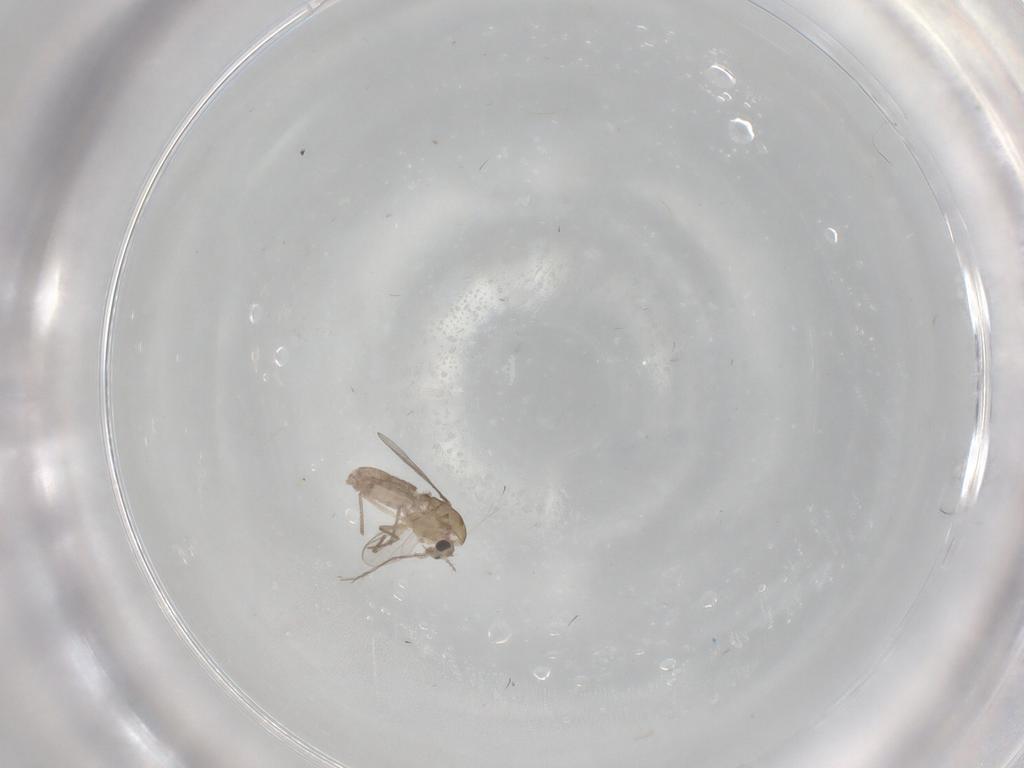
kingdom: Animalia
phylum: Arthropoda
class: Insecta
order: Diptera
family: Chironomidae
